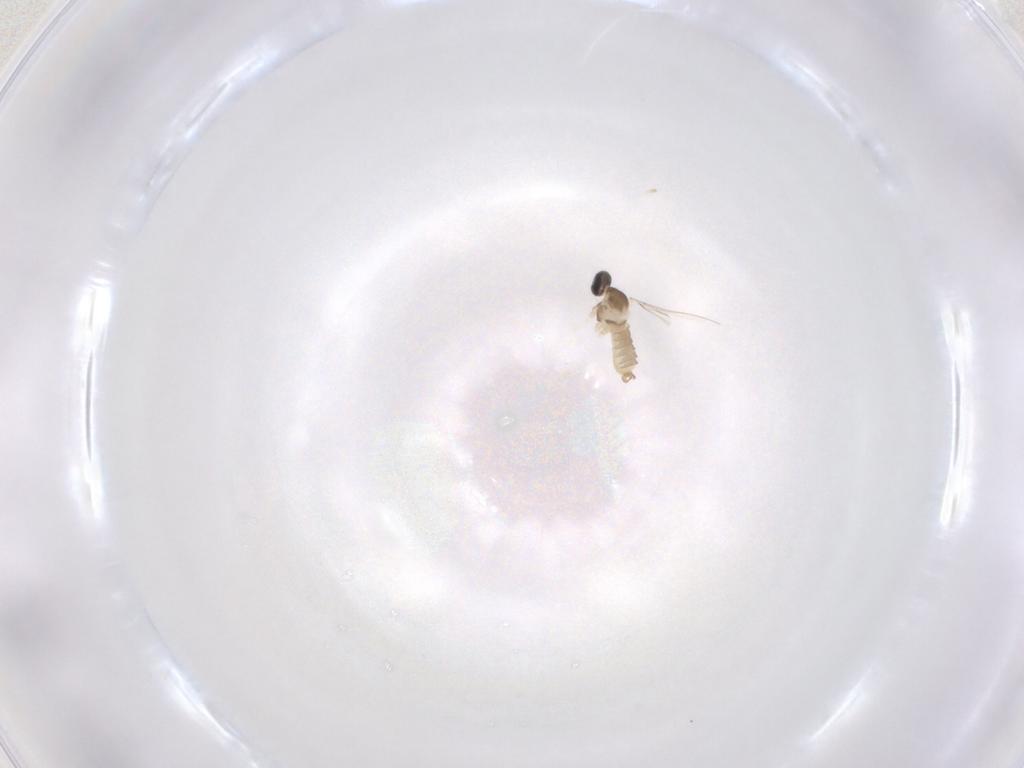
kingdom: Animalia
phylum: Arthropoda
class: Insecta
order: Diptera
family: Cecidomyiidae
